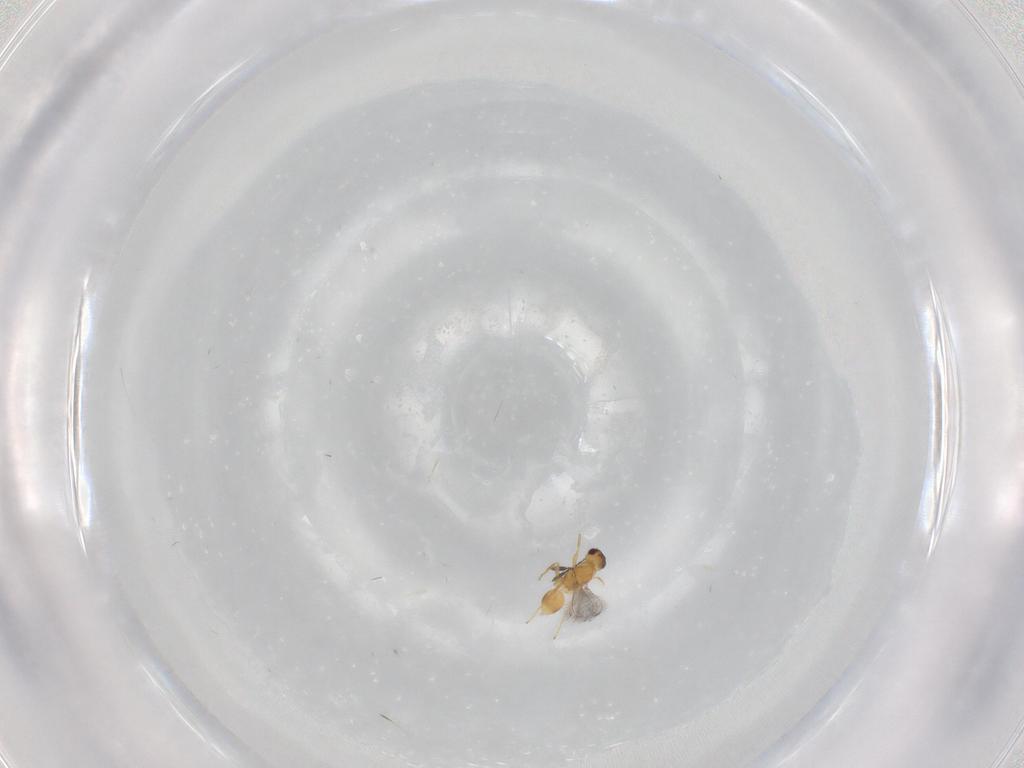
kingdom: Animalia
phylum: Arthropoda
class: Insecta
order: Hymenoptera
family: Mymaridae
